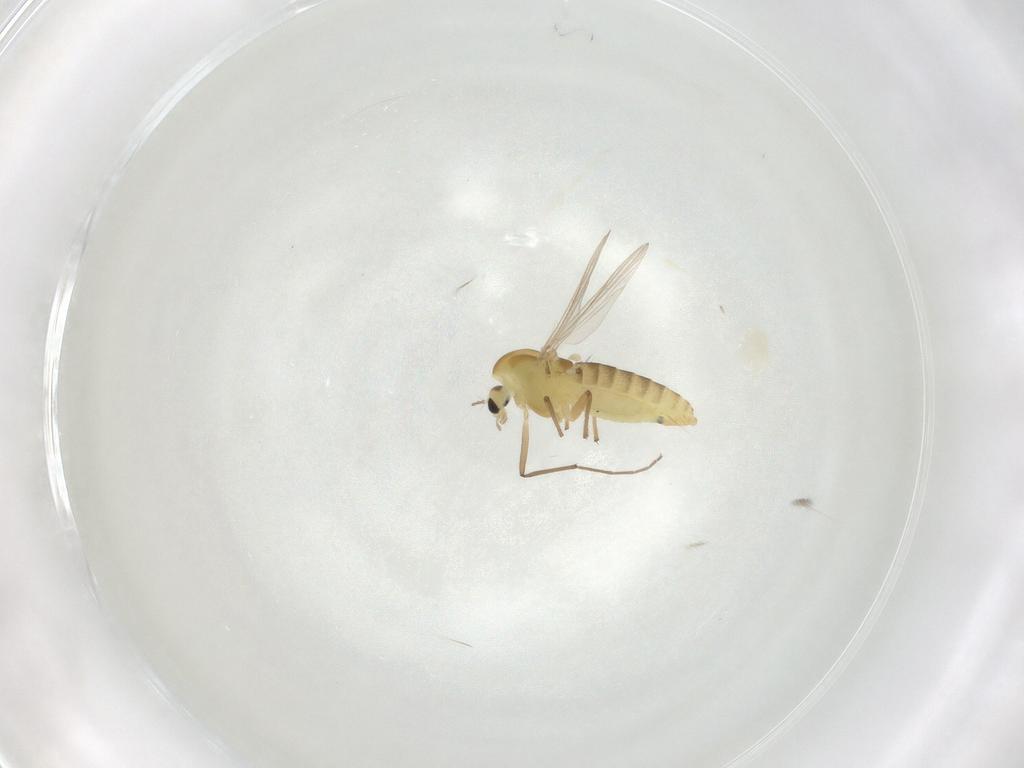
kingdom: Animalia
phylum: Arthropoda
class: Insecta
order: Diptera
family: Chironomidae
